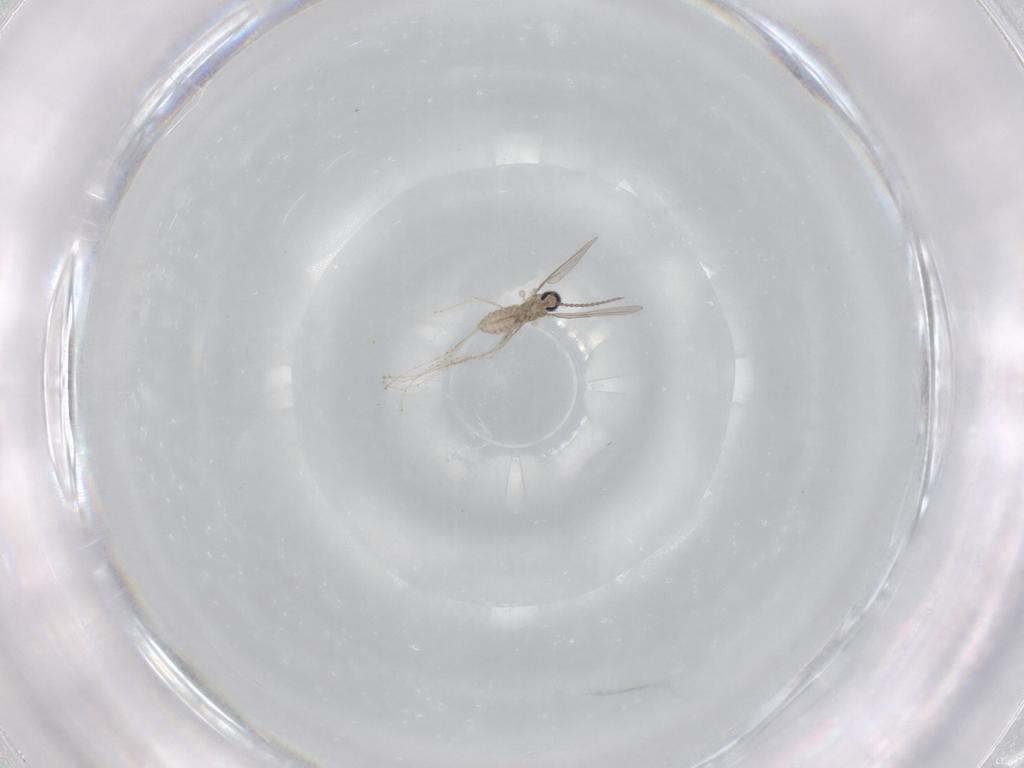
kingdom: Animalia
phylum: Arthropoda
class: Insecta
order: Diptera
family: Cecidomyiidae
